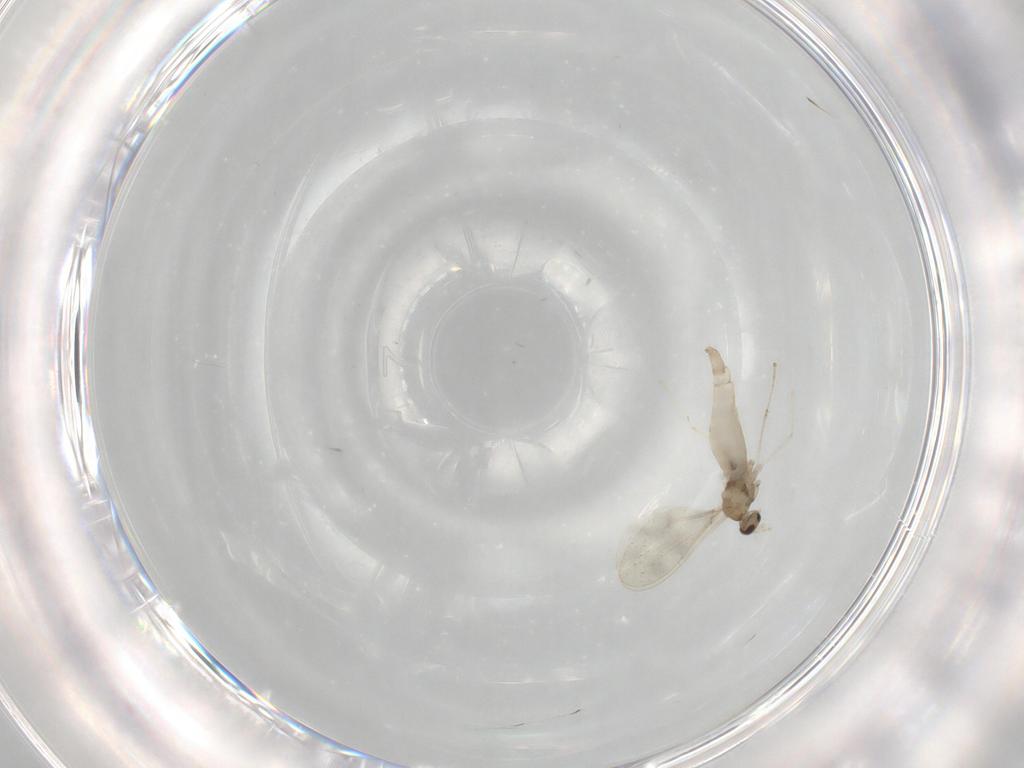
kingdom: Animalia
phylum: Arthropoda
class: Insecta
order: Diptera
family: Cecidomyiidae
